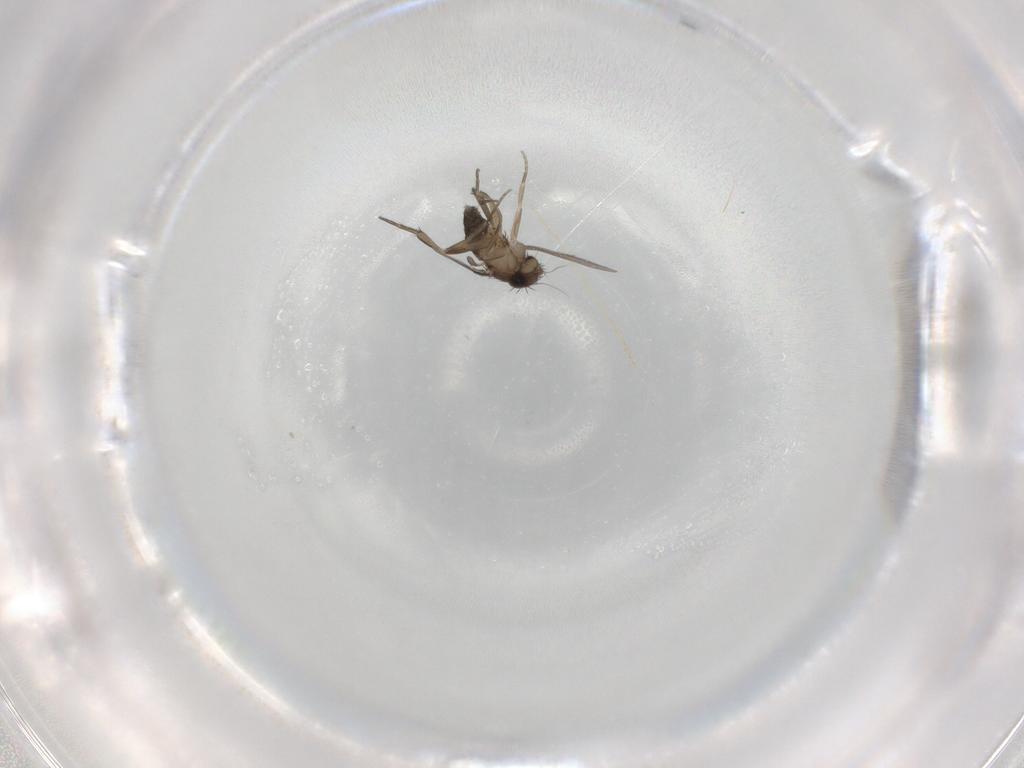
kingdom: Animalia
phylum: Arthropoda
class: Insecta
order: Diptera
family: Phoridae
